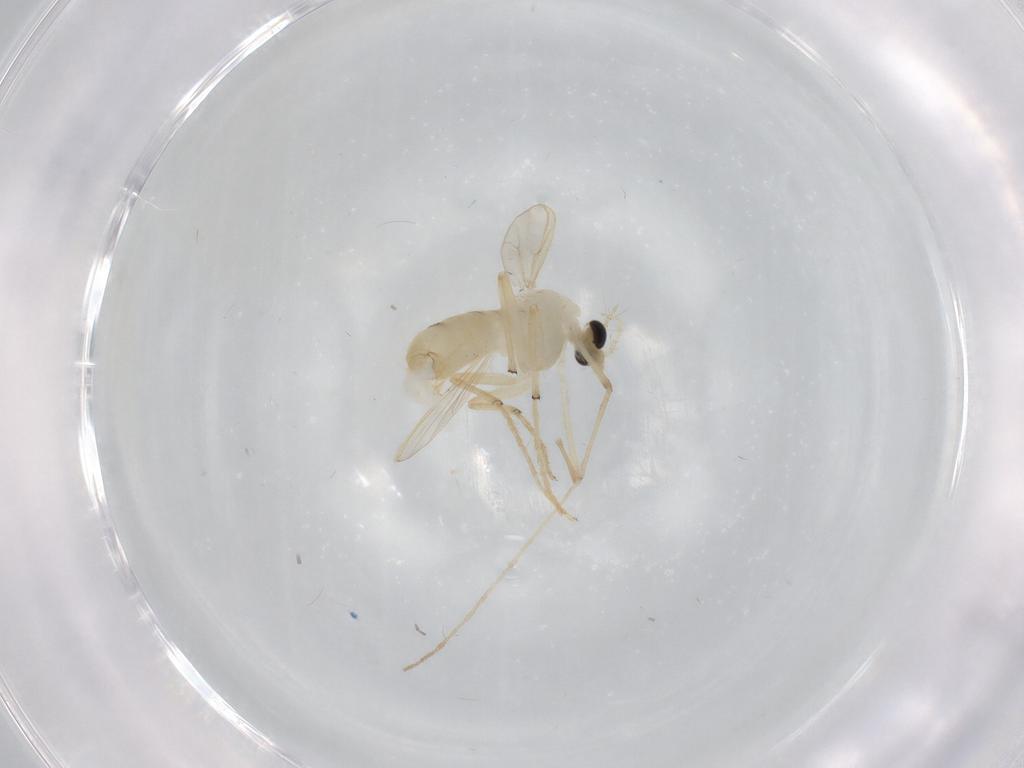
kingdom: Animalia
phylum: Arthropoda
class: Insecta
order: Diptera
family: Chironomidae
